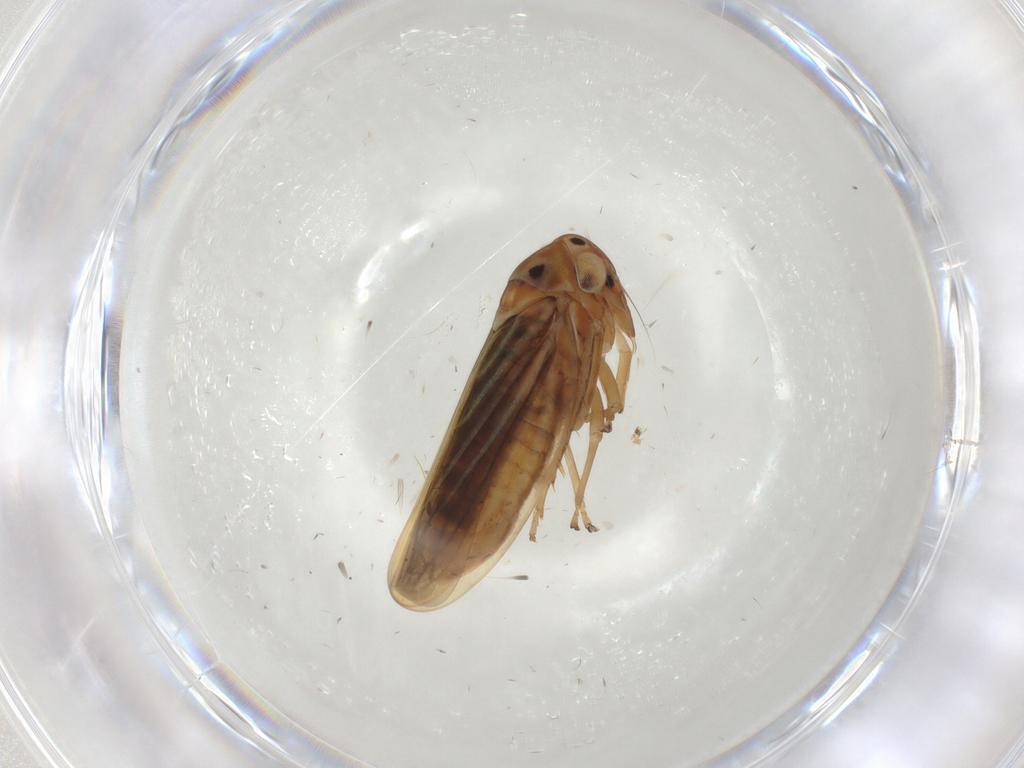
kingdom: Animalia
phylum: Arthropoda
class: Insecta
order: Hemiptera
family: Cicadellidae
